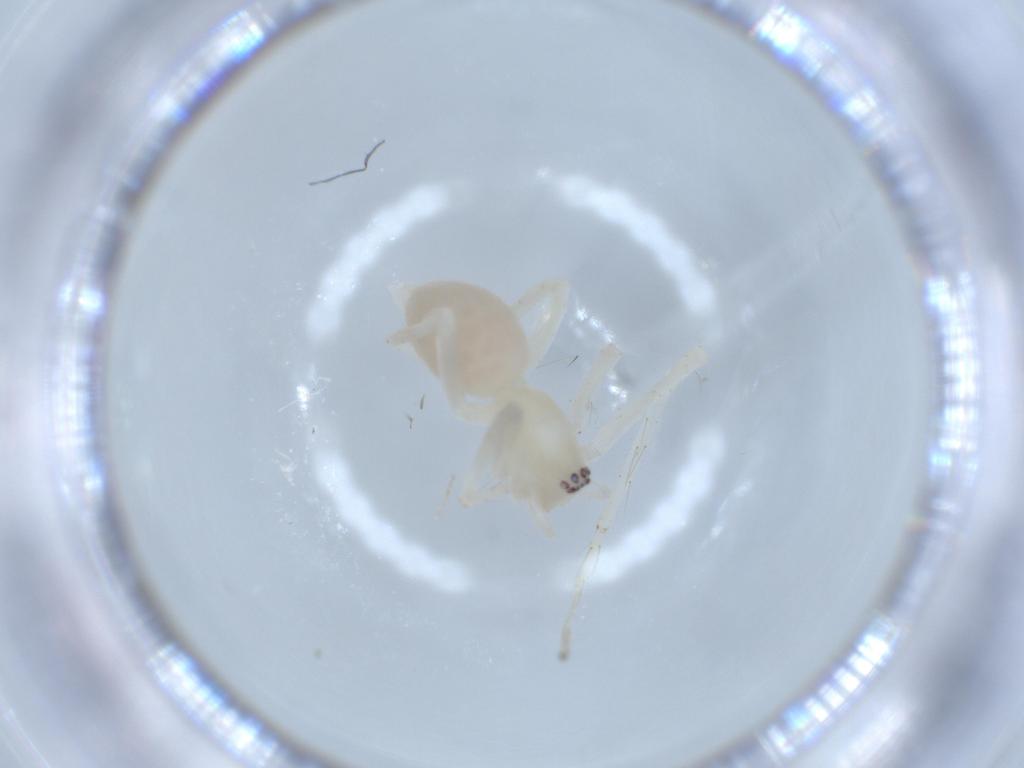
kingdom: Animalia
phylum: Arthropoda
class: Arachnida
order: Araneae
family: Anyphaenidae
